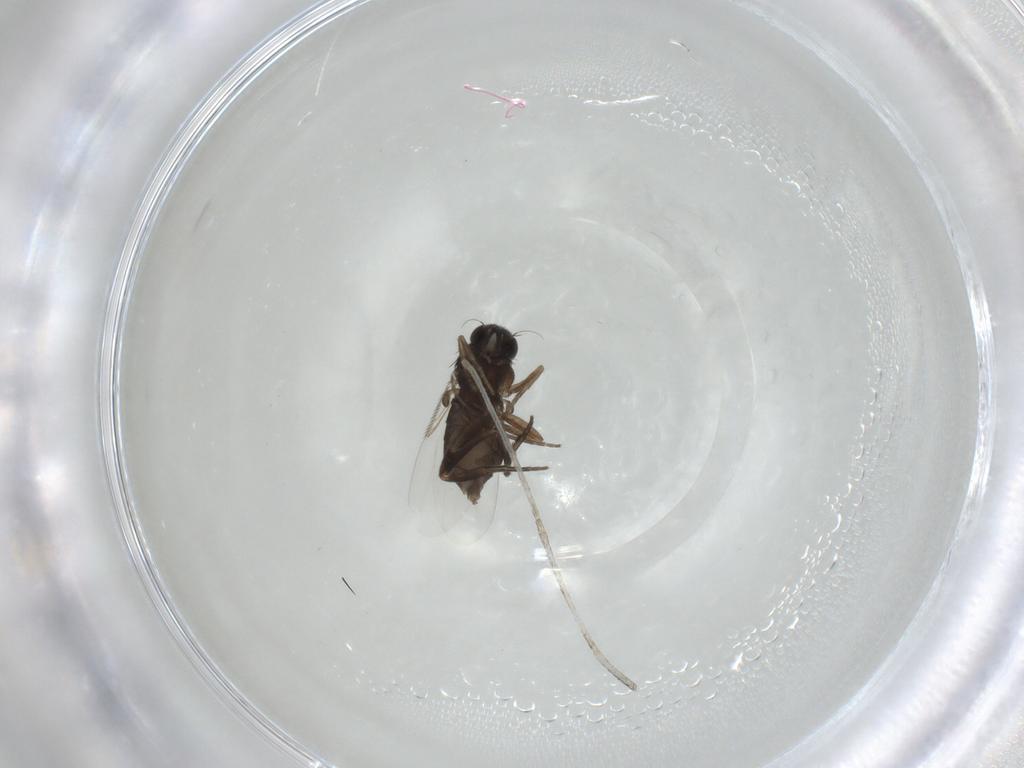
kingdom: Animalia
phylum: Arthropoda
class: Insecta
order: Diptera
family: Phoridae
